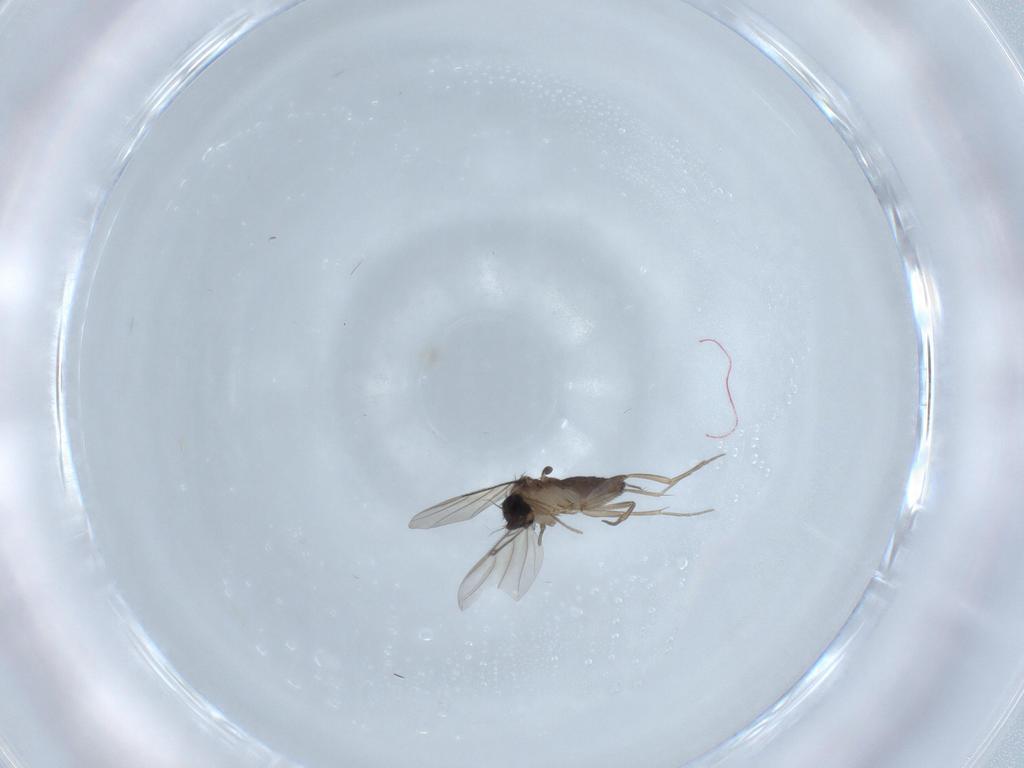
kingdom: Animalia
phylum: Arthropoda
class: Insecta
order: Diptera
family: Phoridae
